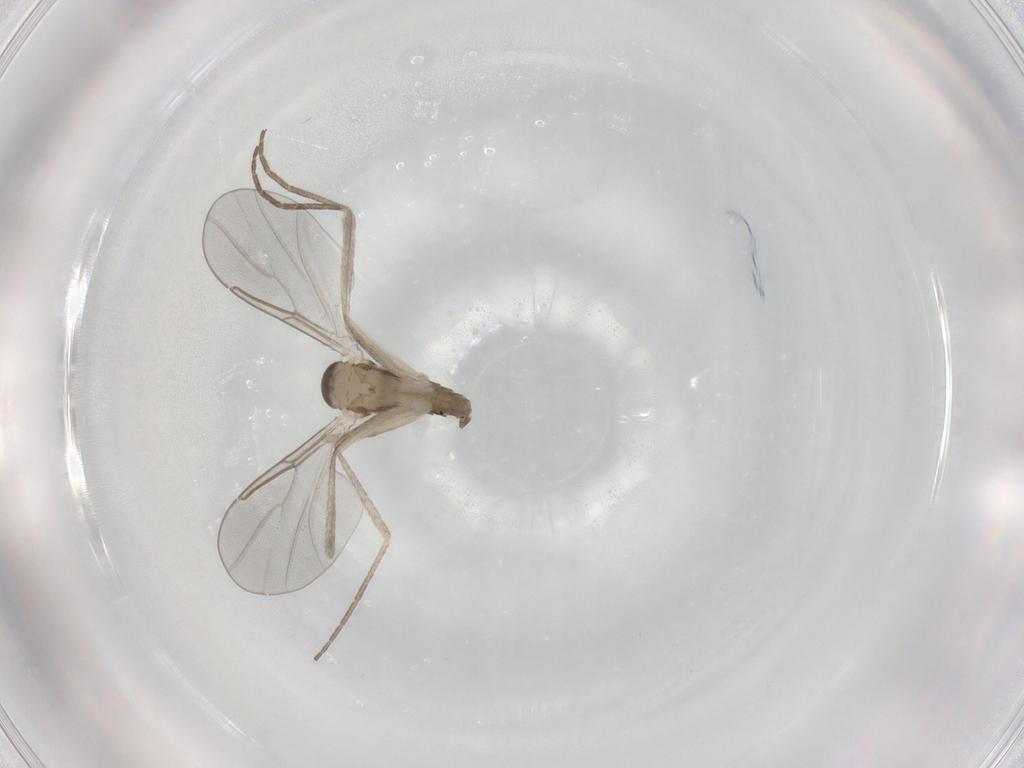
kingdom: Animalia
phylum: Arthropoda
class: Insecta
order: Diptera
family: Cecidomyiidae
